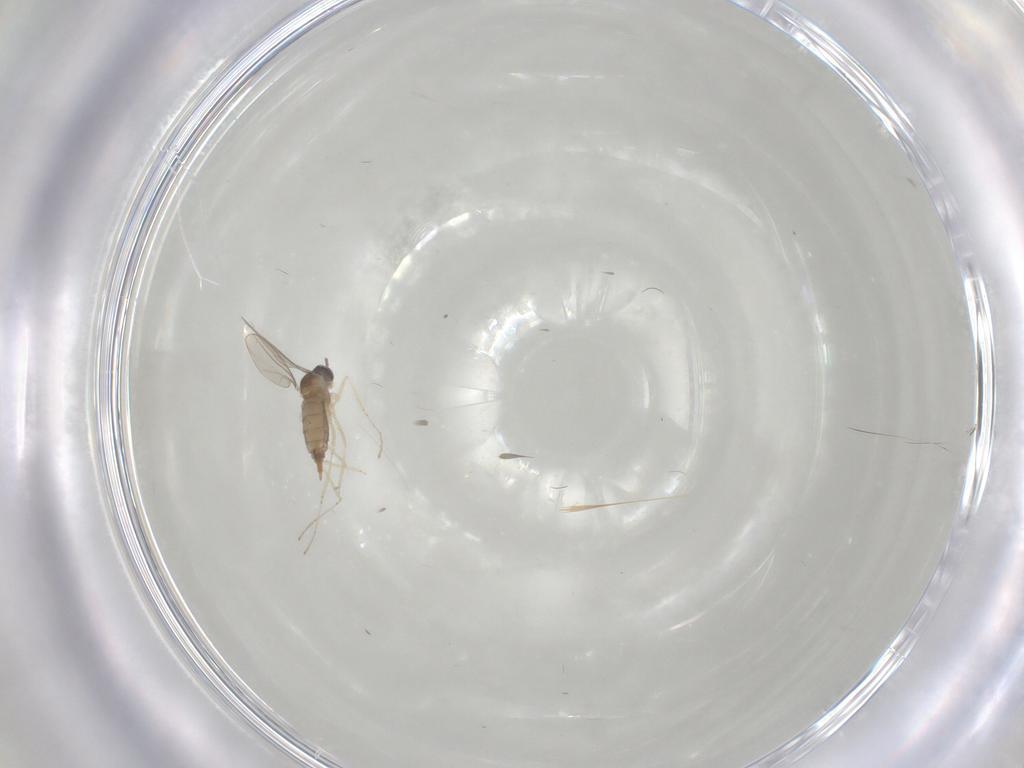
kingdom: Animalia
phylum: Arthropoda
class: Insecta
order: Diptera
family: Cecidomyiidae
